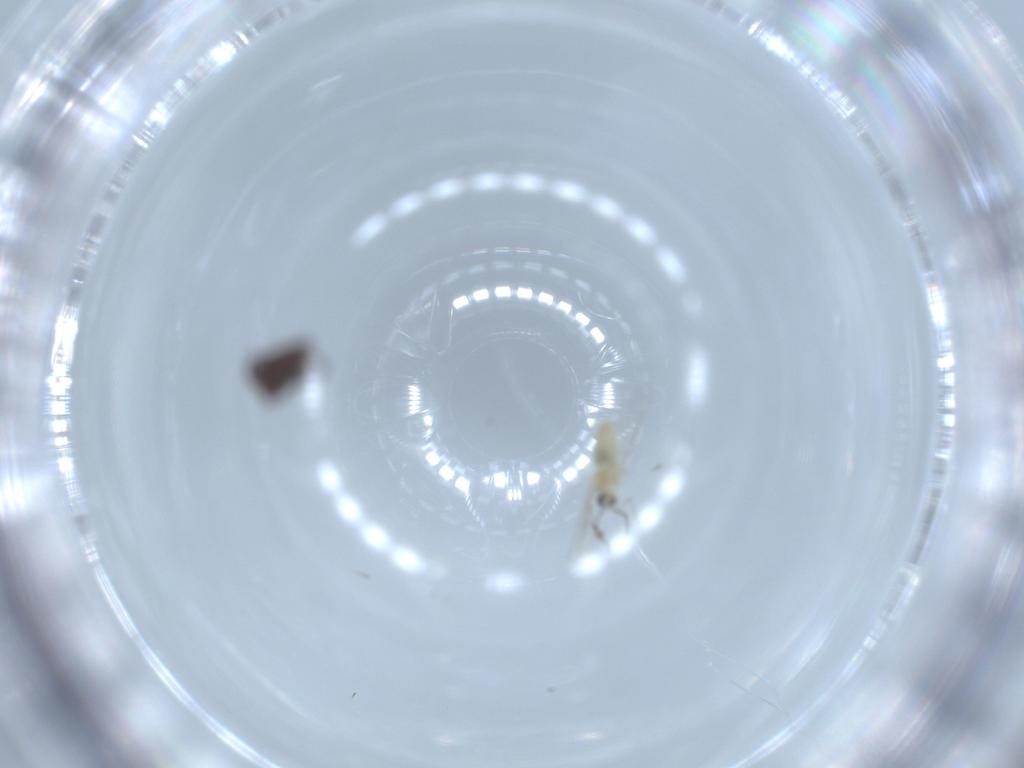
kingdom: Animalia
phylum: Arthropoda
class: Insecta
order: Diptera
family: Cecidomyiidae
